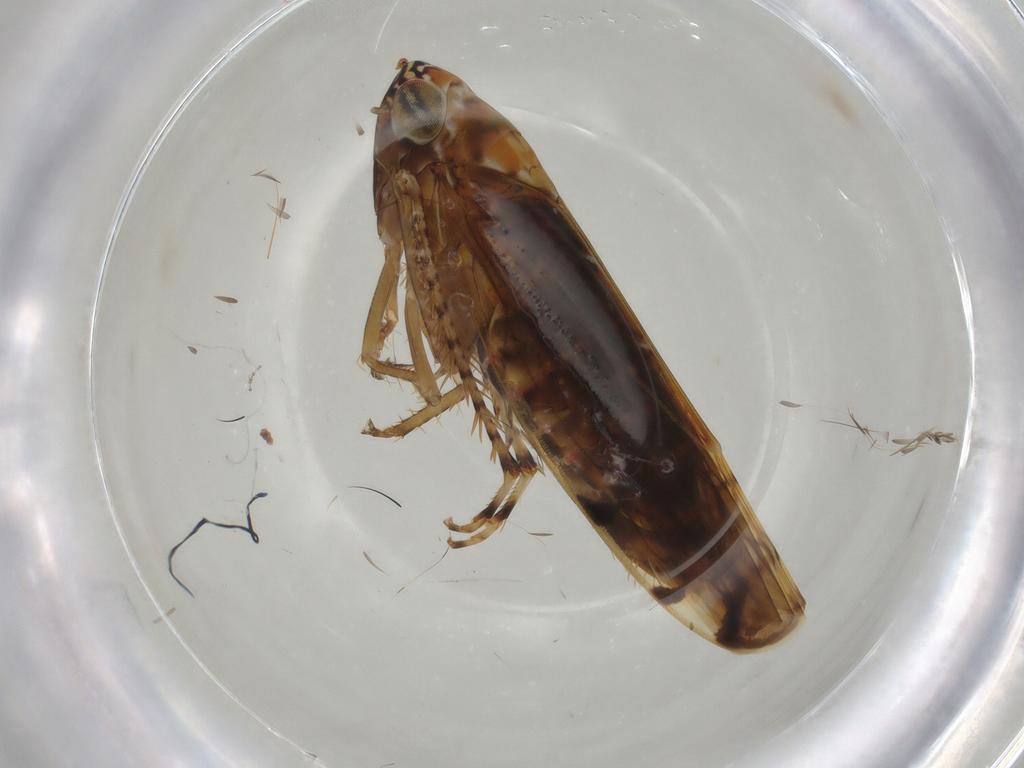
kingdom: Animalia
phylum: Arthropoda
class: Insecta
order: Hemiptera
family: Cicadellidae
